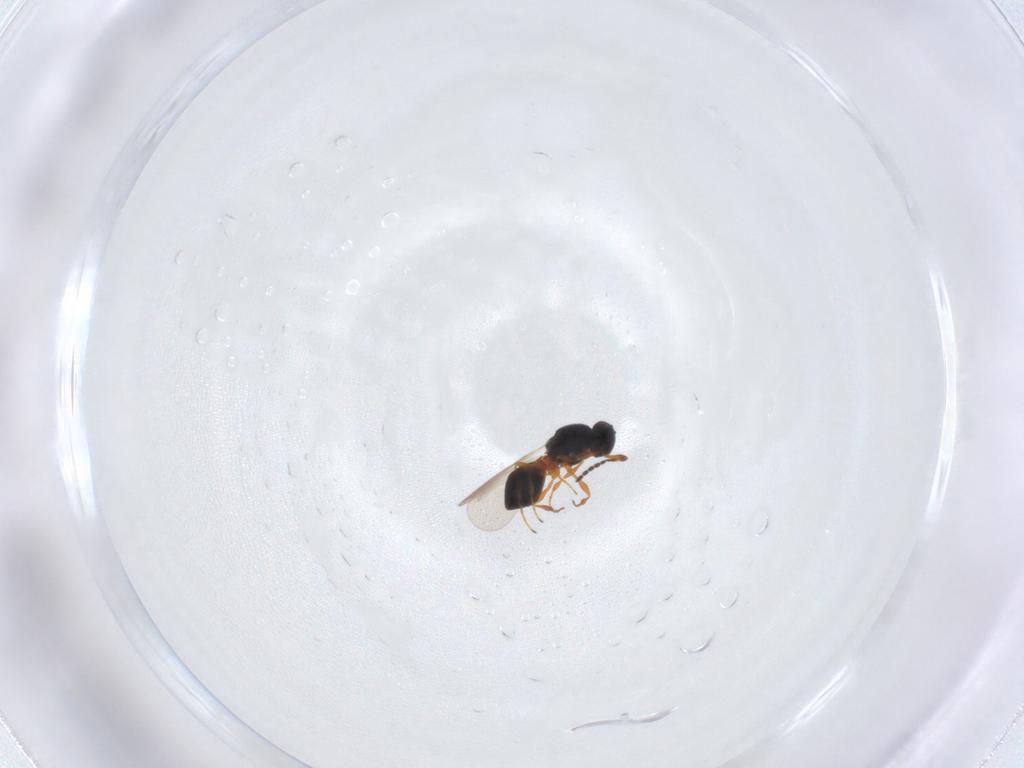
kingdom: Animalia
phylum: Arthropoda
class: Insecta
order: Hymenoptera
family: Platygastridae
